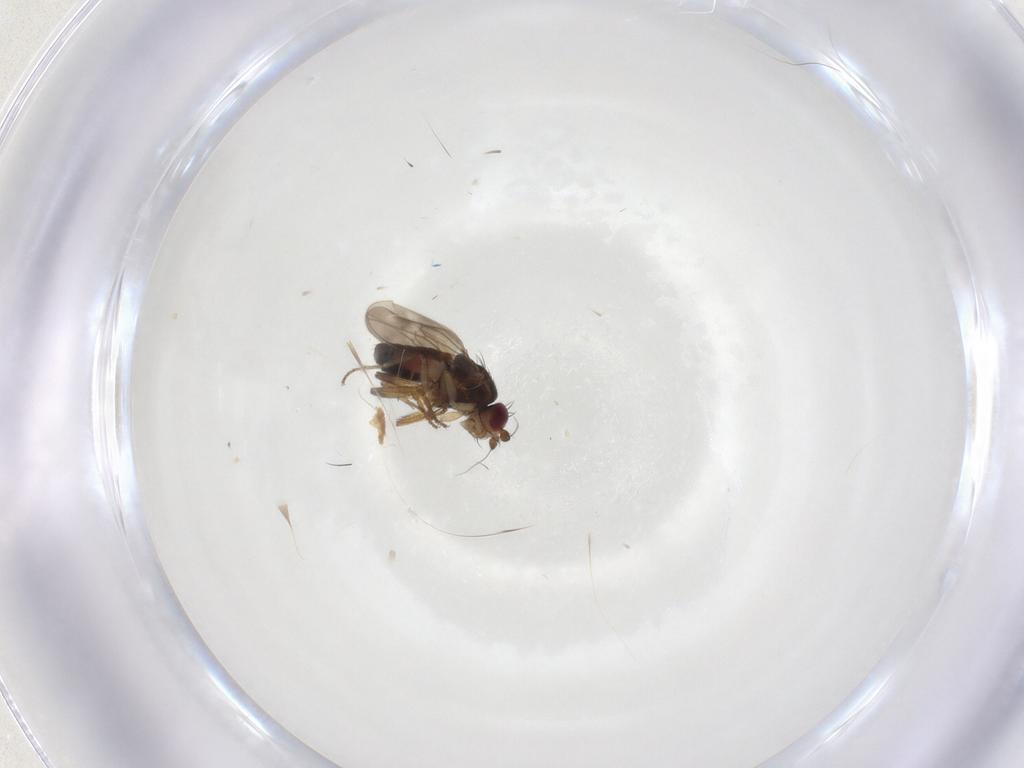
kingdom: Animalia
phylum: Arthropoda
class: Insecta
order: Diptera
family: Sphaeroceridae
